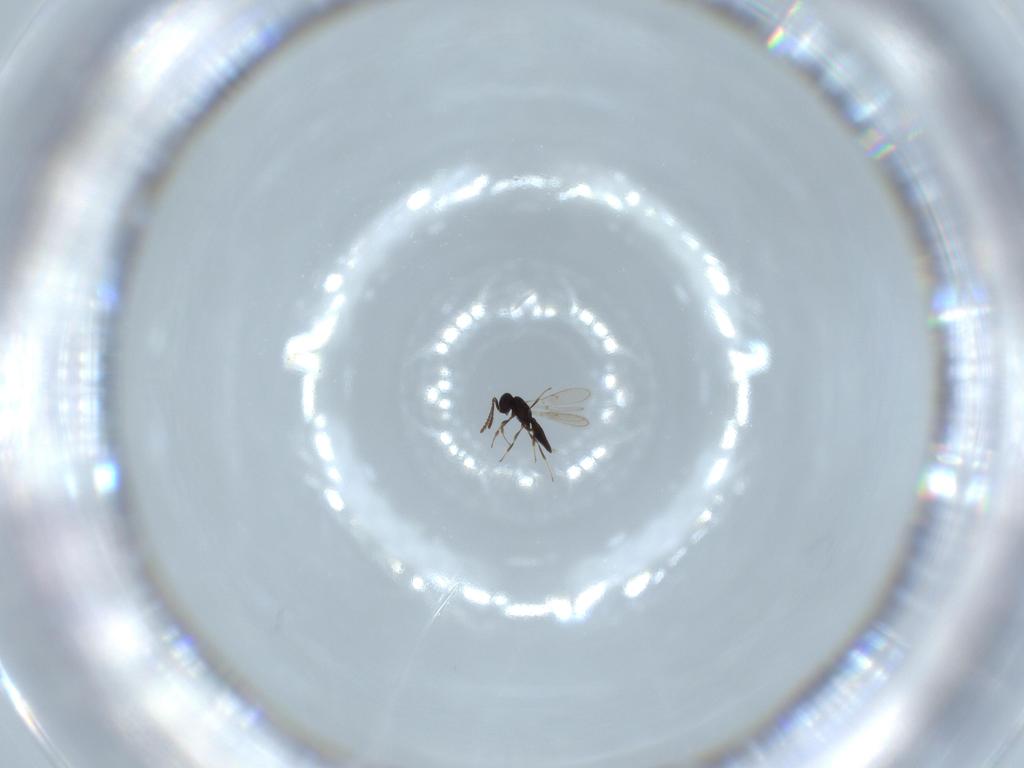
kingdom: Animalia
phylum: Arthropoda
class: Insecta
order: Hymenoptera
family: Scelionidae
